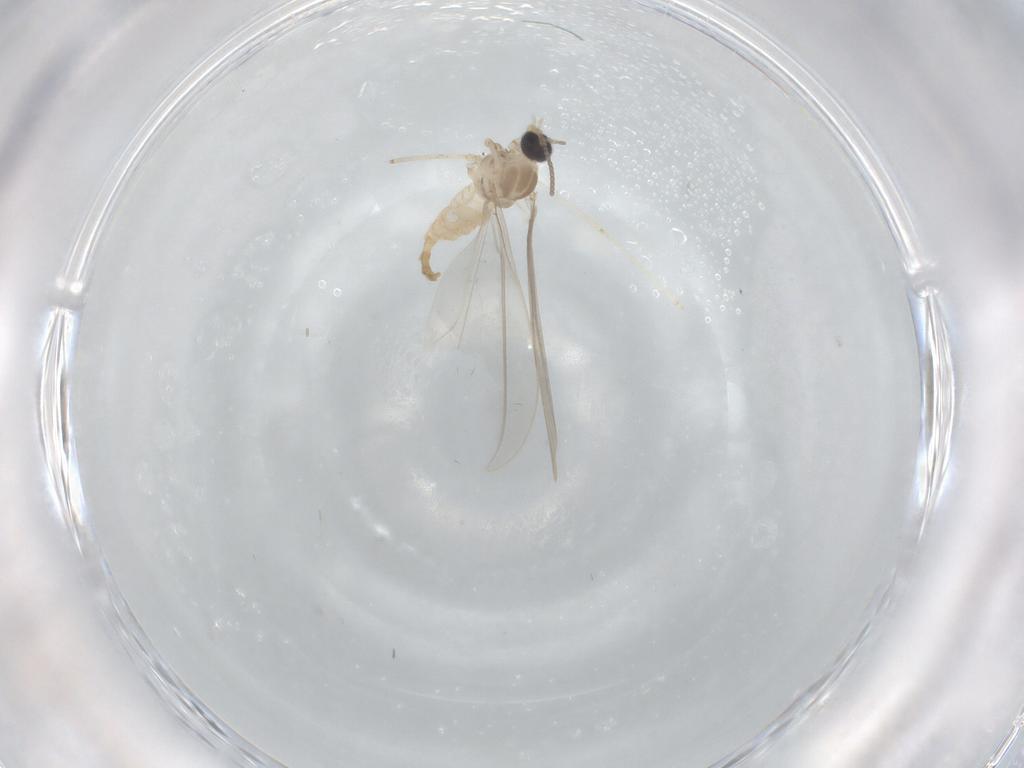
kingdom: Animalia
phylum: Arthropoda
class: Insecta
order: Diptera
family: Cecidomyiidae
